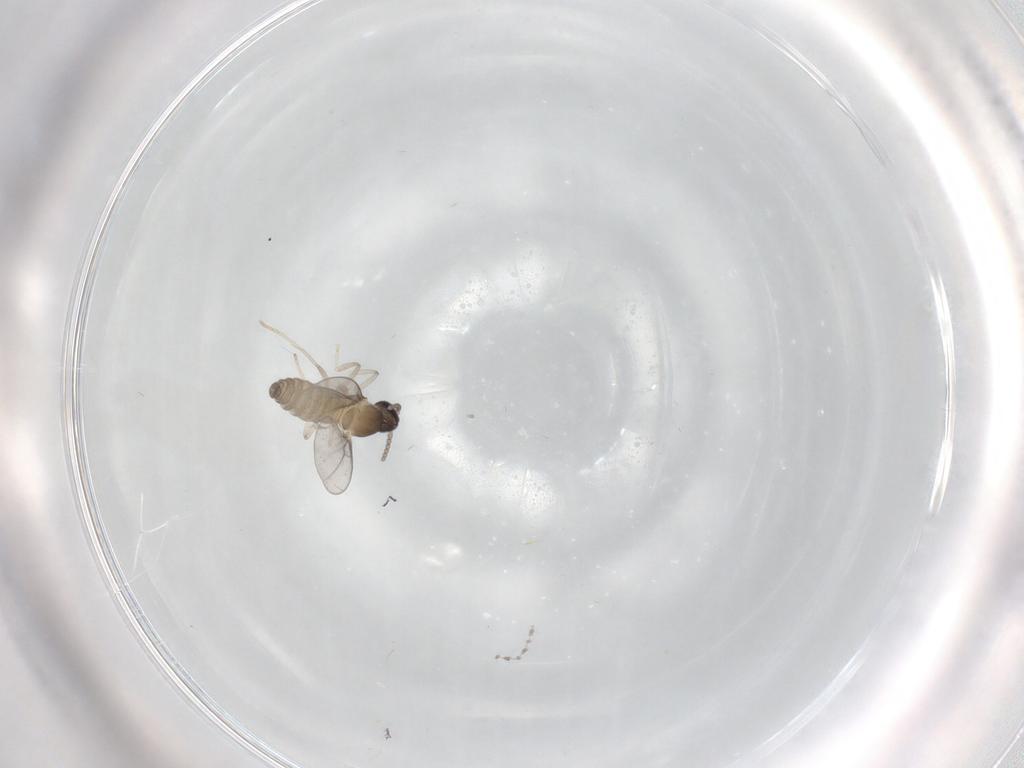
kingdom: Animalia
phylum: Arthropoda
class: Insecta
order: Diptera
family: Cecidomyiidae
